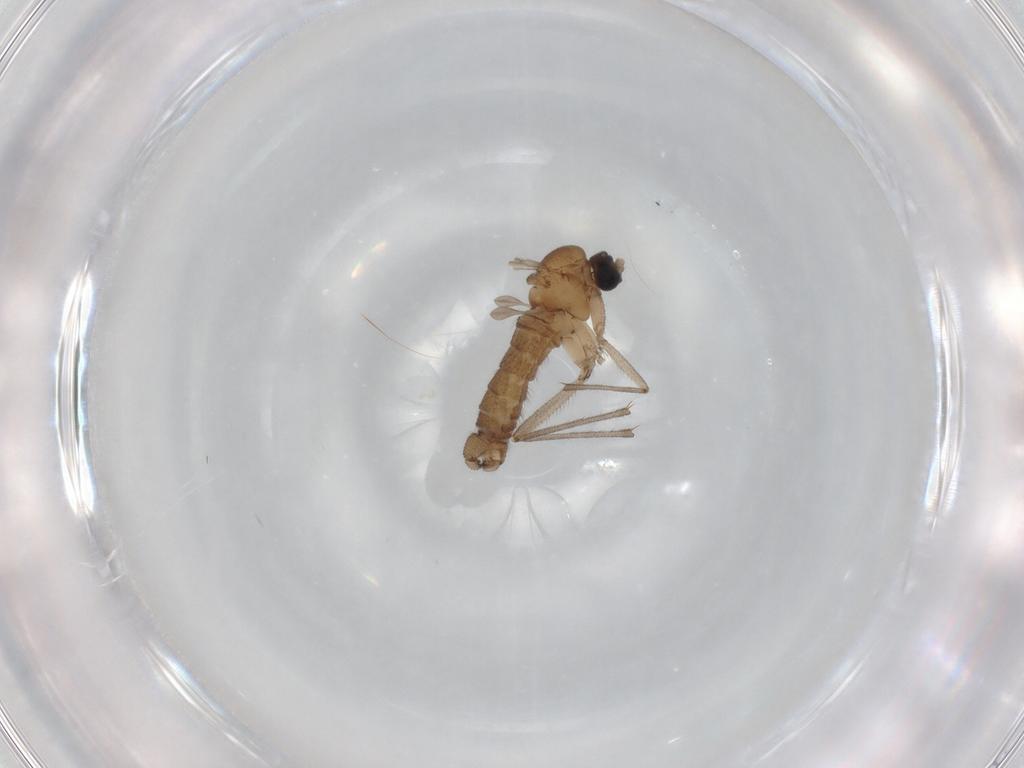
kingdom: Animalia
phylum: Arthropoda
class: Insecta
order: Diptera
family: Sciaridae
